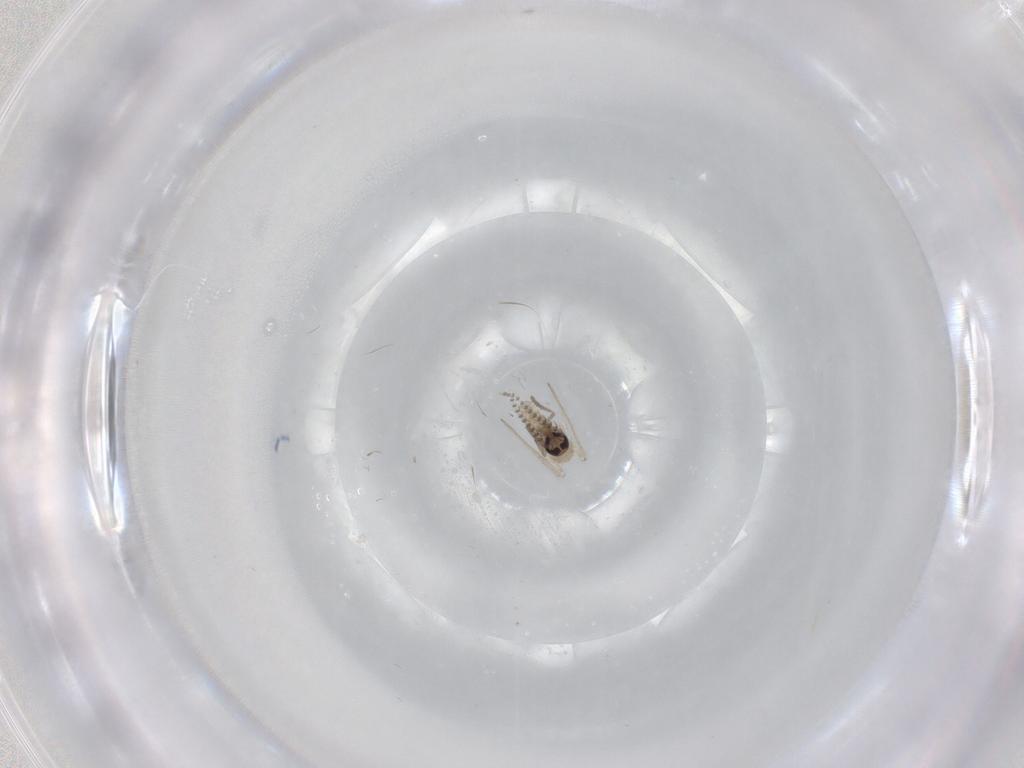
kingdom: Animalia
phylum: Arthropoda
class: Insecta
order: Diptera
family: Psychodidae
